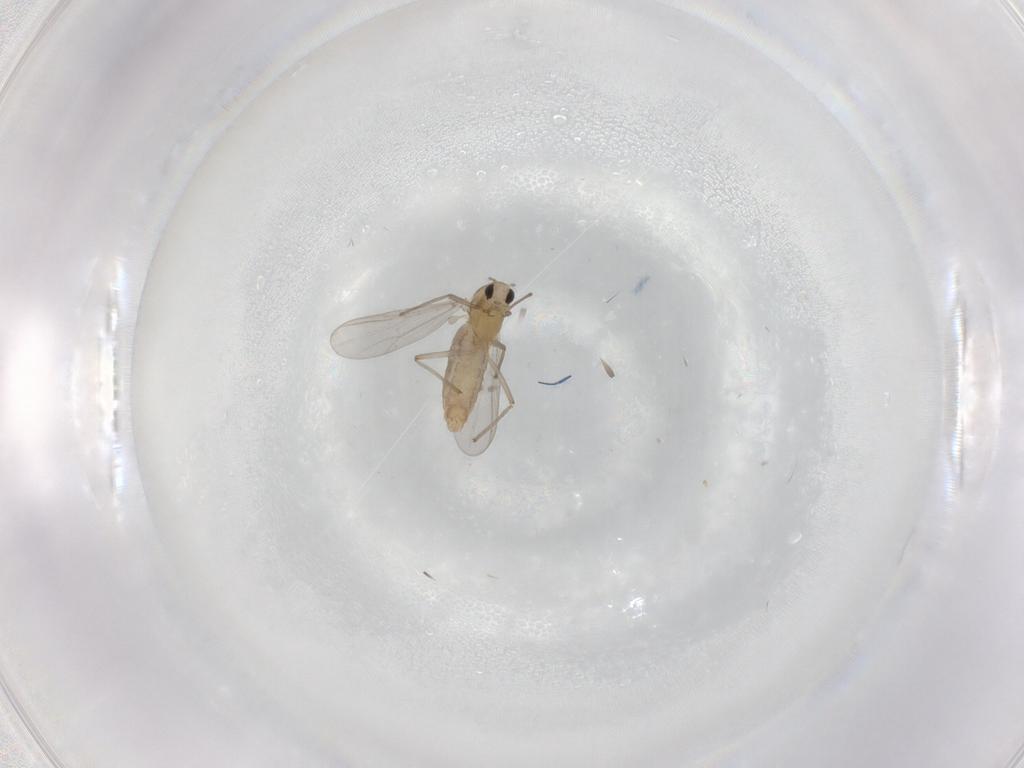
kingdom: Animalia
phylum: Arthropoda
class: Insecta
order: Diptera
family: Chironomidae
